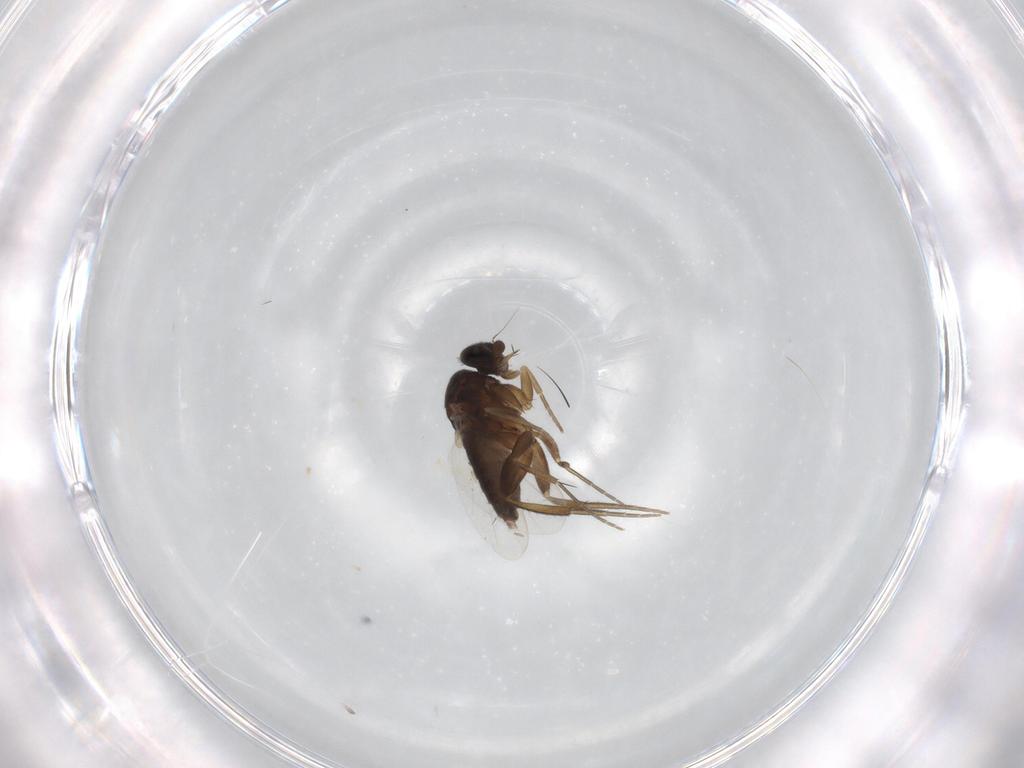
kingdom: Animalia
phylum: Arthropoda
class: Insecta
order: Diptera
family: Phoridae
